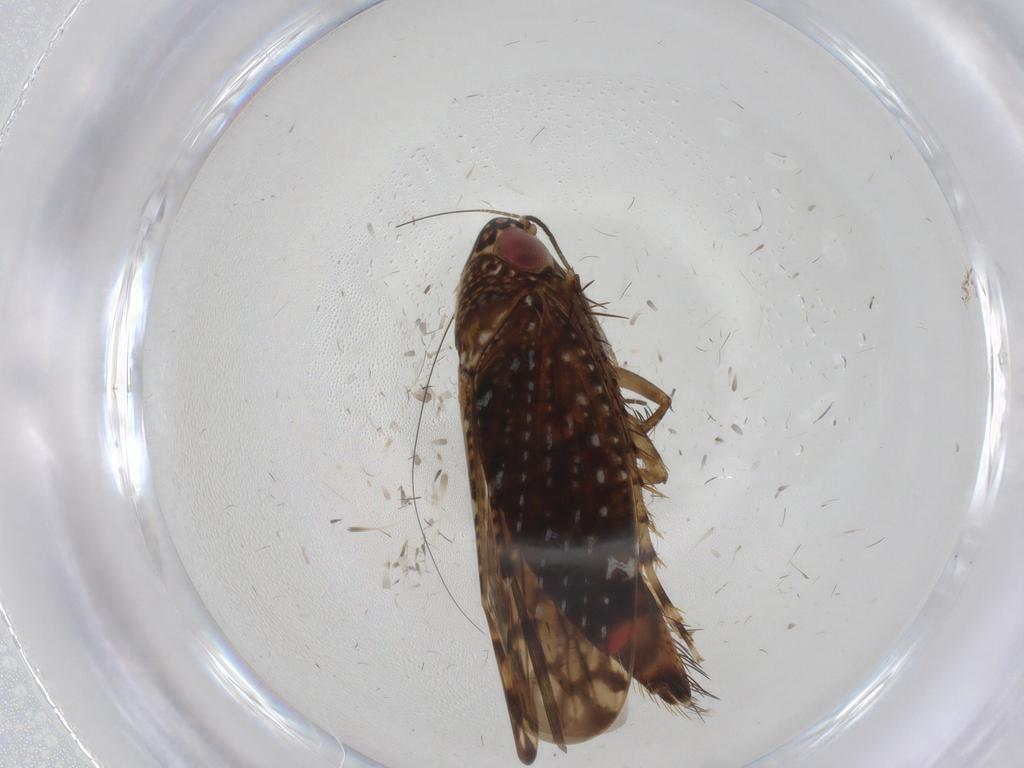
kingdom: Animalia
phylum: Arthropoda
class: Insecta
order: Hemiptera
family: Cicadellidae
